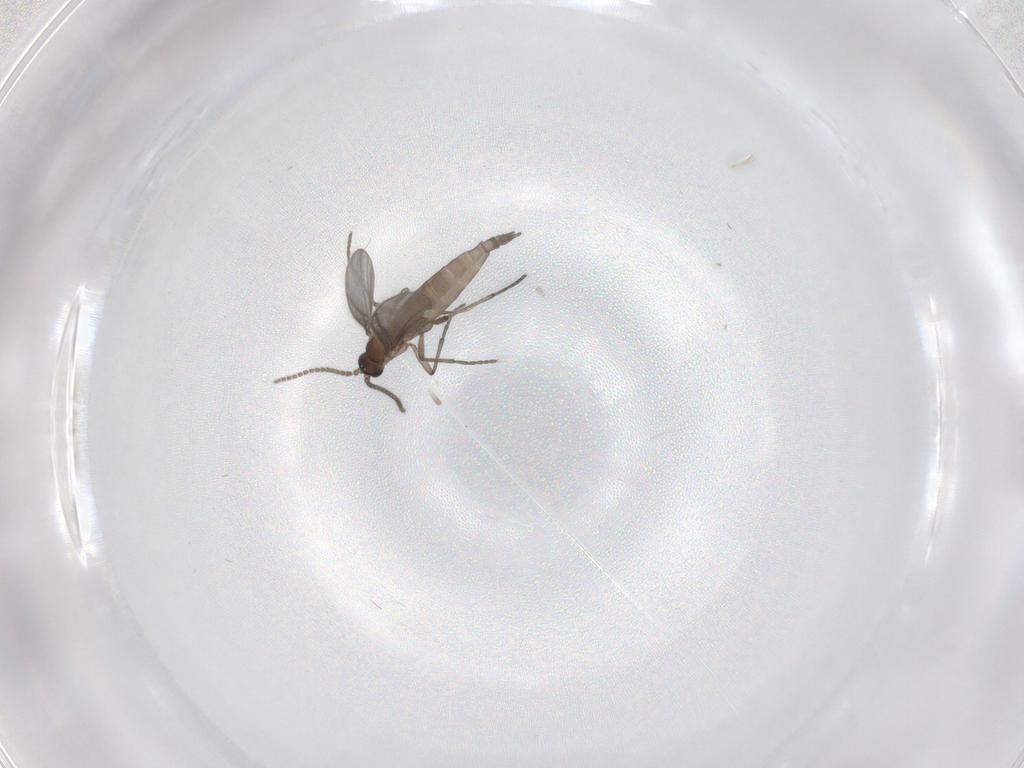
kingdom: Animalia
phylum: Arthropoda
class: Insecta
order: Diptera
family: Sciaridae
